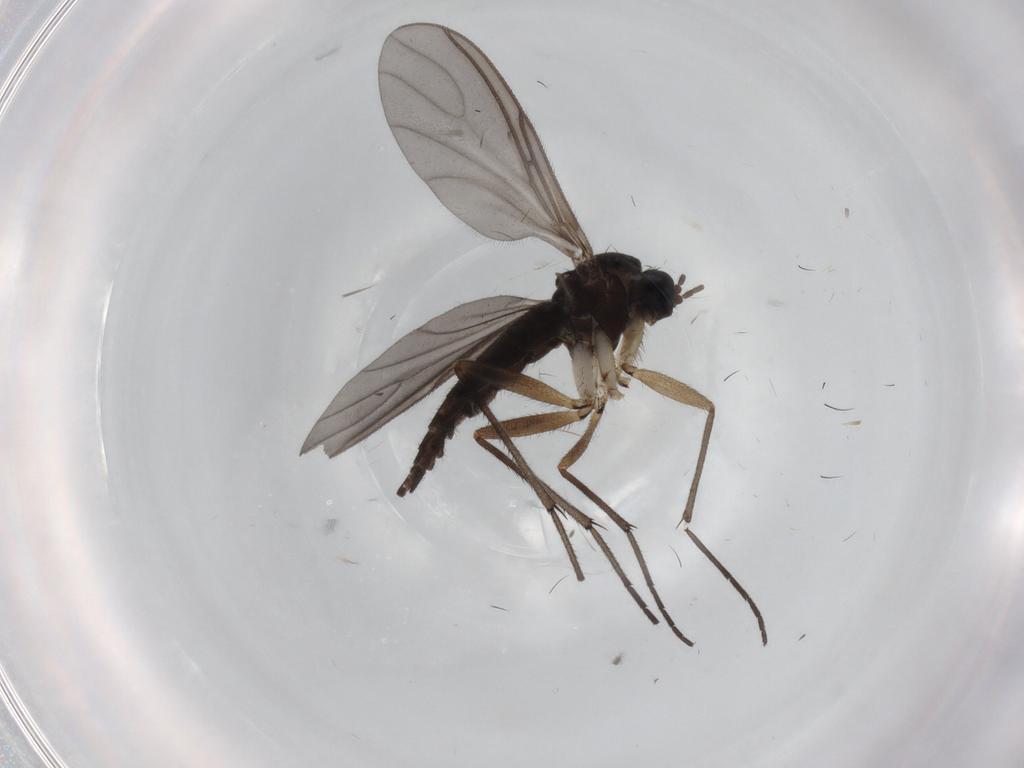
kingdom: Animalia
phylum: Arthropoda
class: Insecta
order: Diptera
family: Sciaridae
